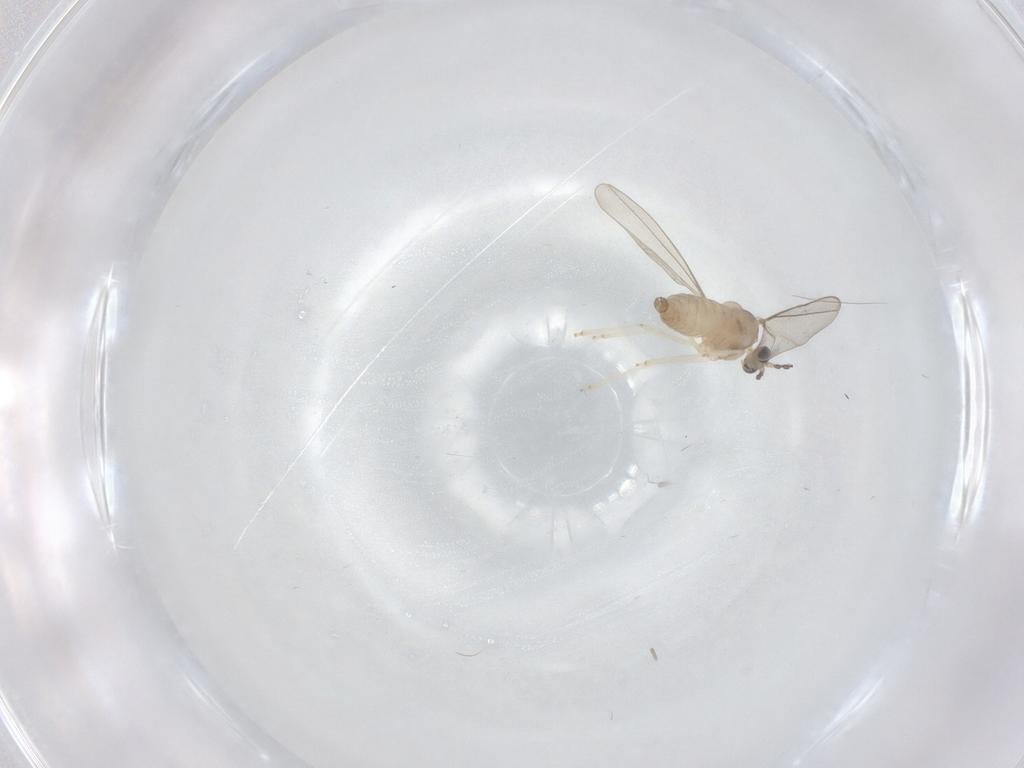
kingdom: Animalia
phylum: Arthropoda
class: Insecta
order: Diptera
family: Cecidomyiidae
